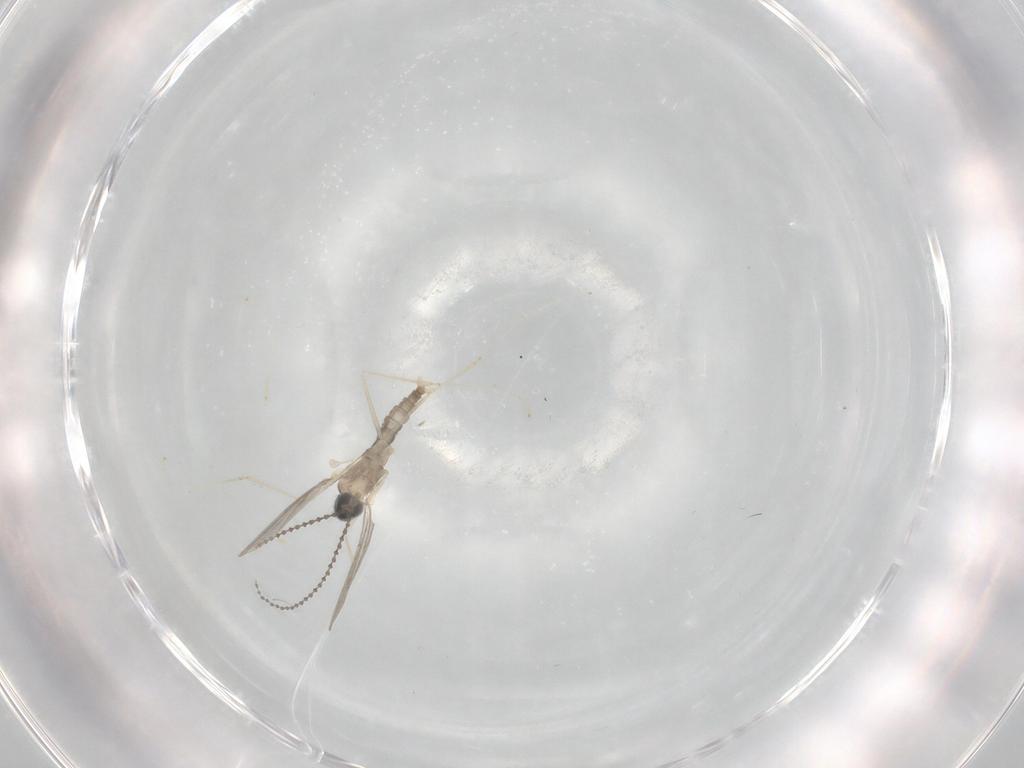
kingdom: Animalia
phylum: Arthropoda
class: Insecta
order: Diptera
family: Cecidomyiidae
